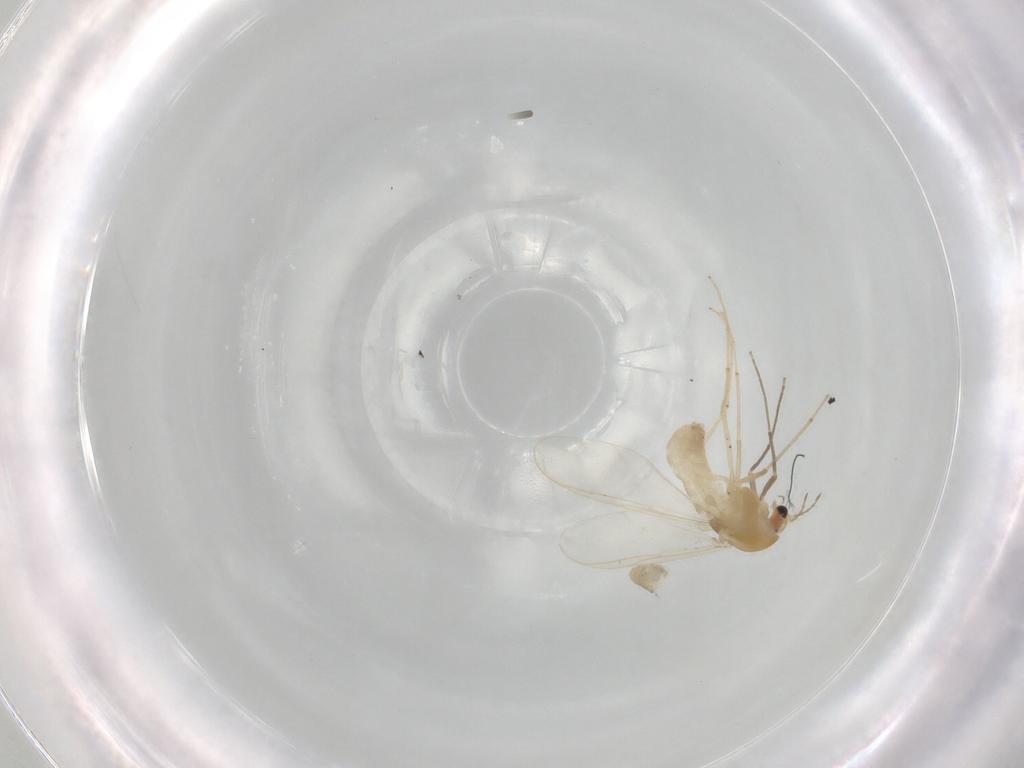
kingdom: Animalia
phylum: Arthropoda
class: Insecta
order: Diptera
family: Chironomidae
